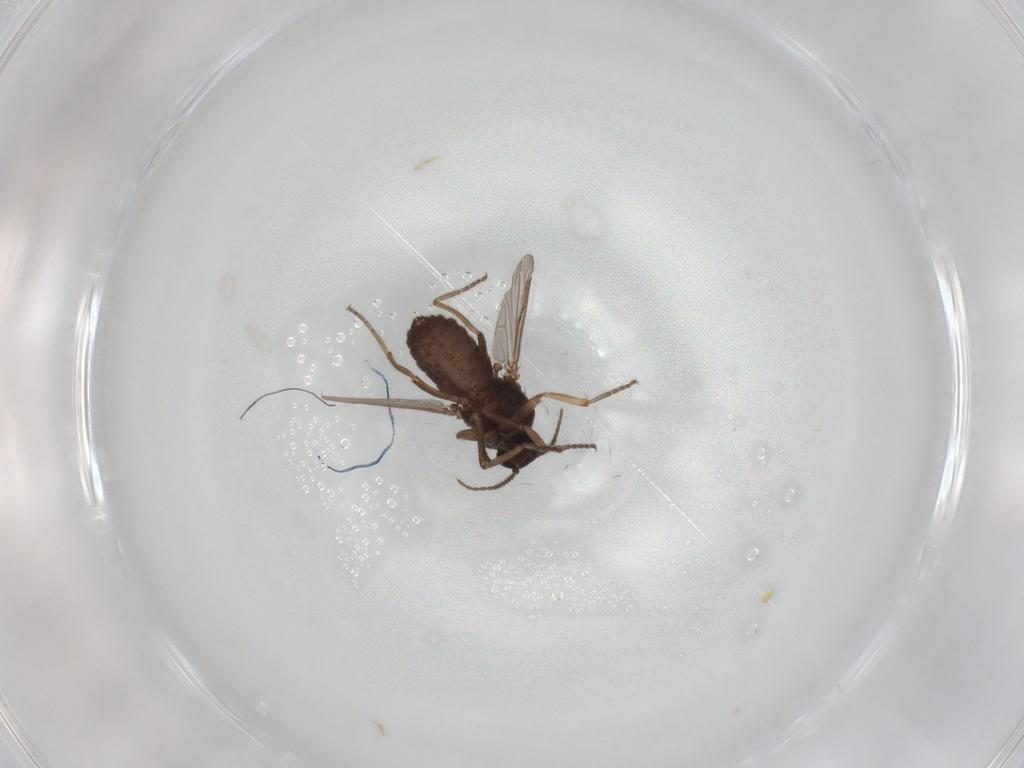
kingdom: Animalia
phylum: Arthropoda
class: Insecta
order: Diptera
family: Ceratopogonidae
